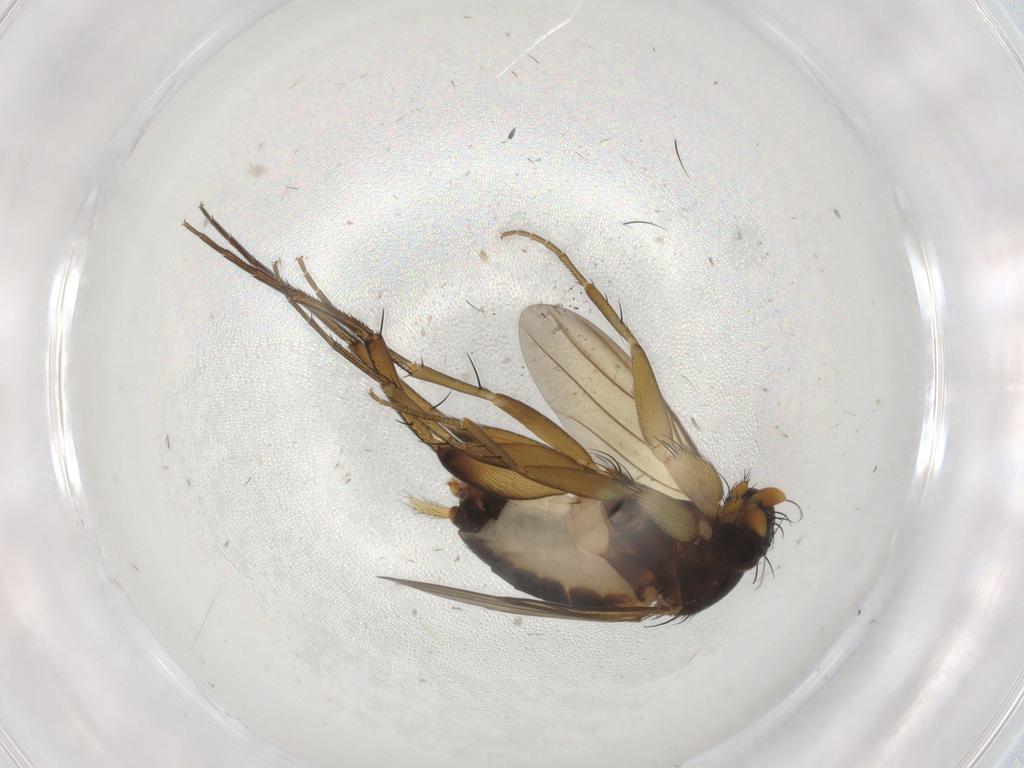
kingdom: Animalia
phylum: Arthropoda
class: Insecta
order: Diptera
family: Phoridae
